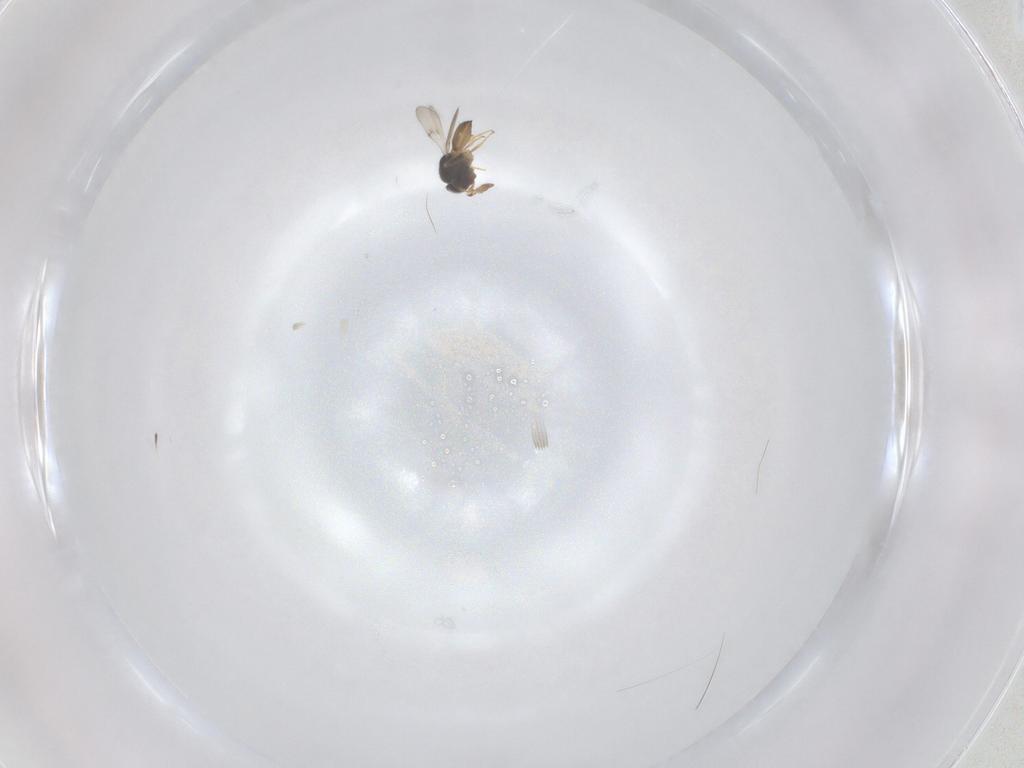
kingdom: Animalia
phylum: Arthropoda
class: Insecta
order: Hymenoptera
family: Scelionidae
